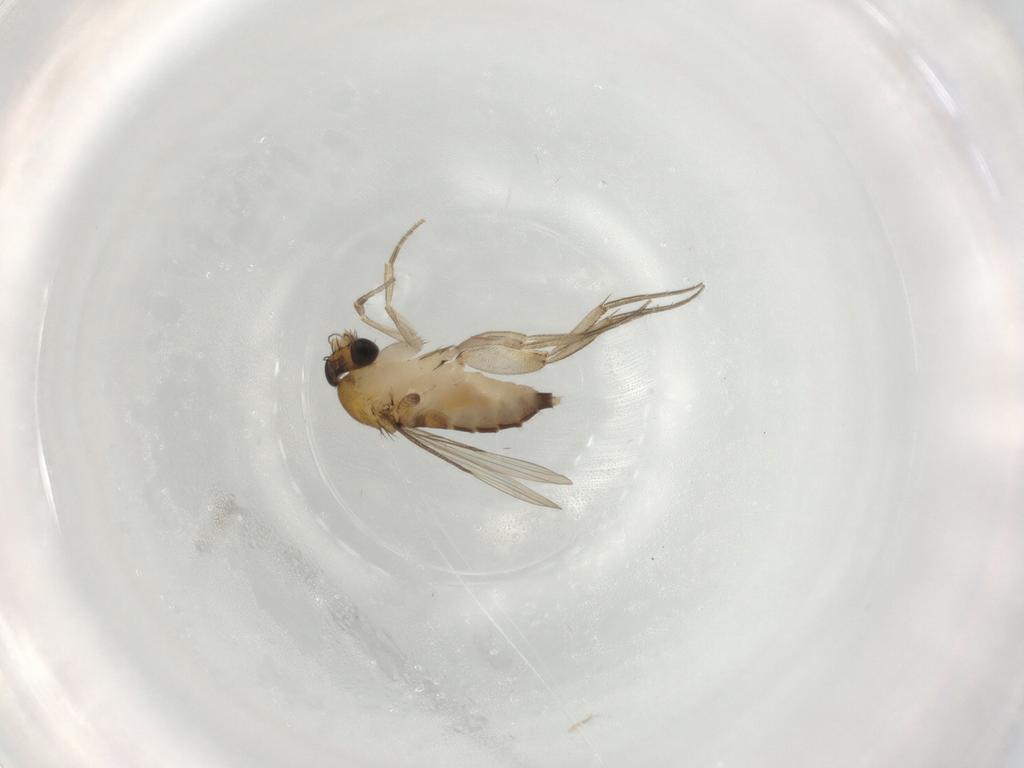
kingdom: Animalia
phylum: Arthropoda
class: Insecta
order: Diptera
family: Phoridae
